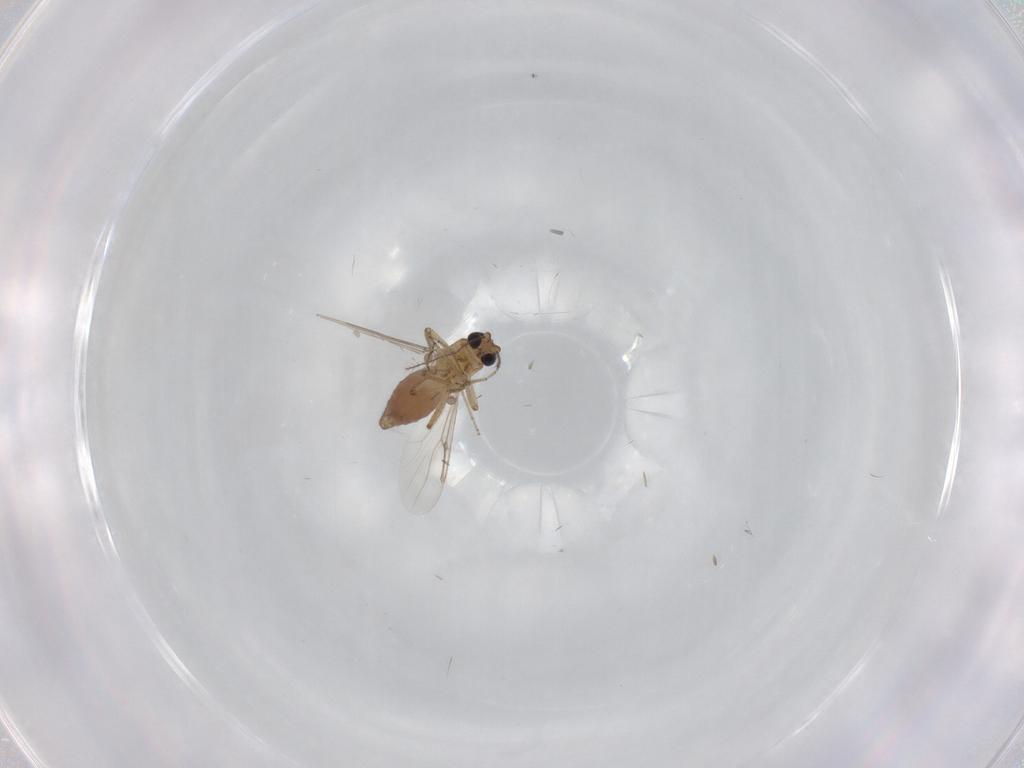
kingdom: Animalia
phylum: Arthropoda
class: Insecta
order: Diptera
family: Ceratopogonidae
